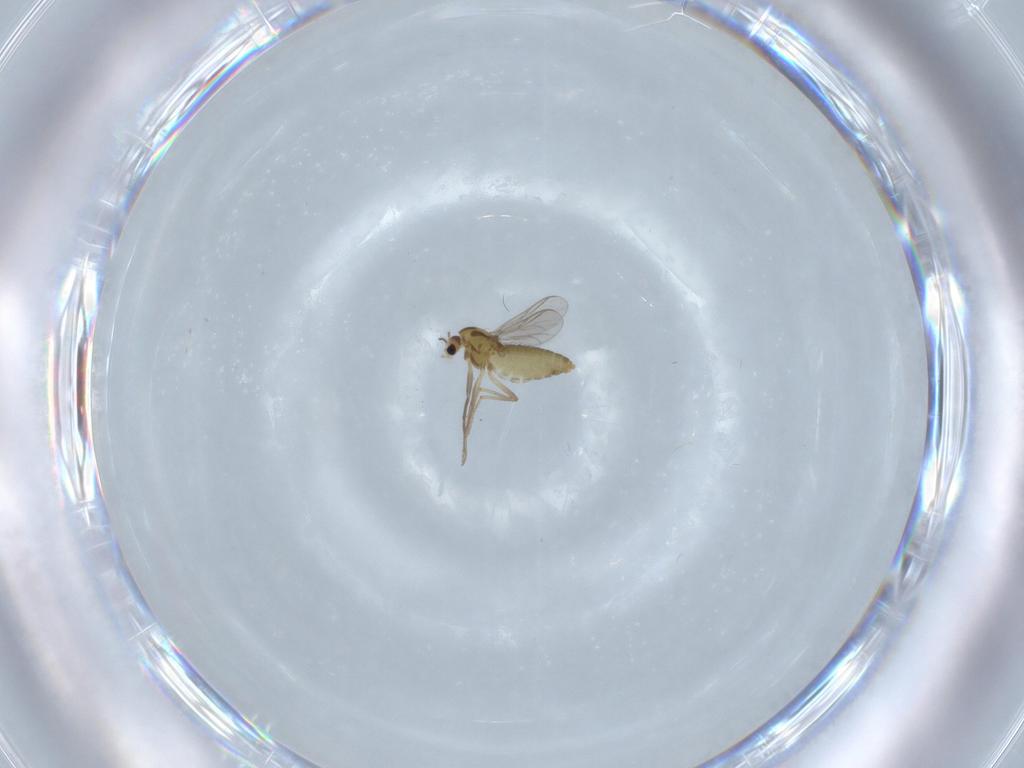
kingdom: Animalia
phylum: Arthropoda
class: Insecta
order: Diptera
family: Chironomidae
